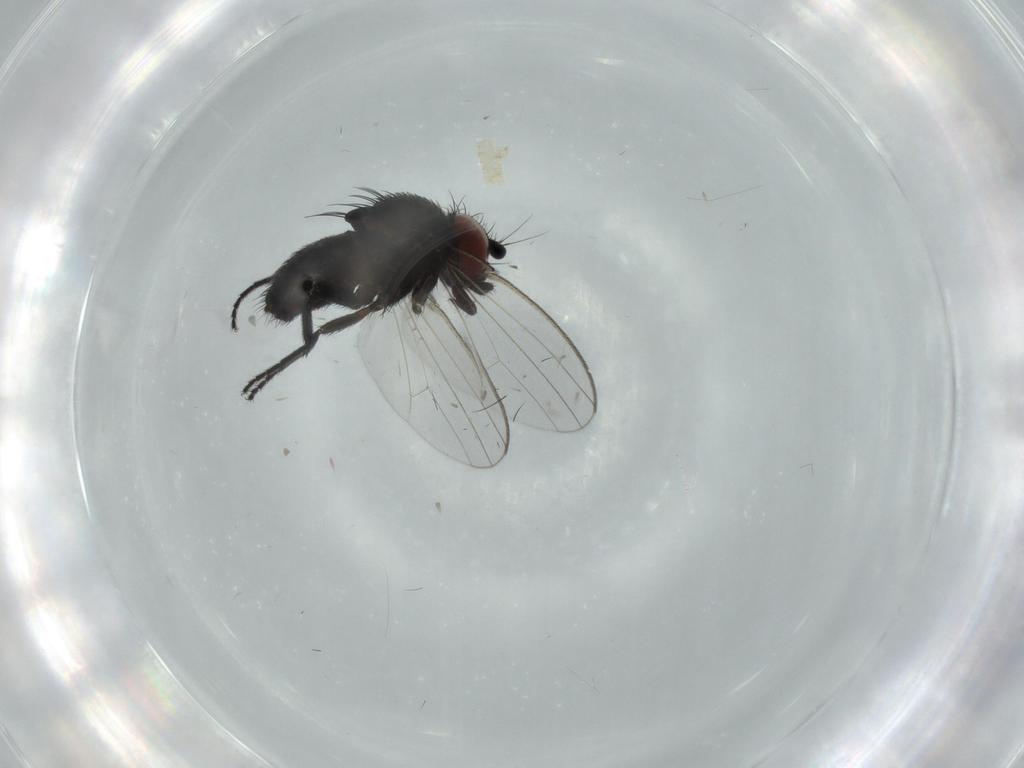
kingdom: Animalia
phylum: Arthropoda
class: Insecta
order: Diptera
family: Milichiidae
